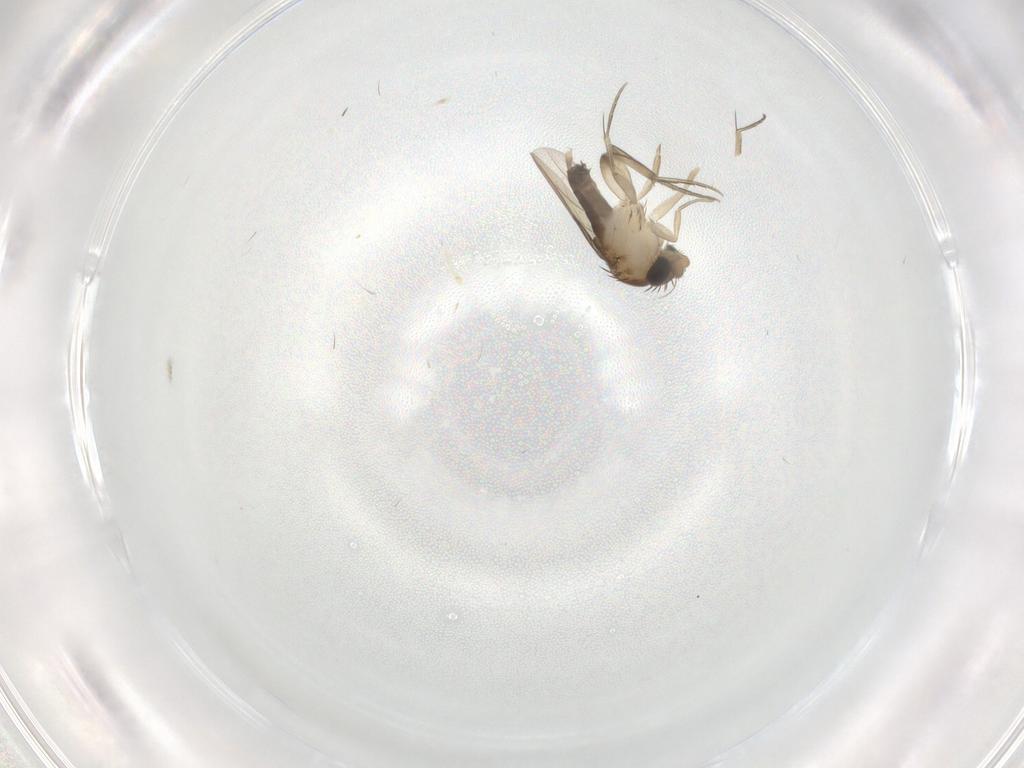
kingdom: Animalia
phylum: Arthropoda
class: Insecta
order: Diptera
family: Phoridae
